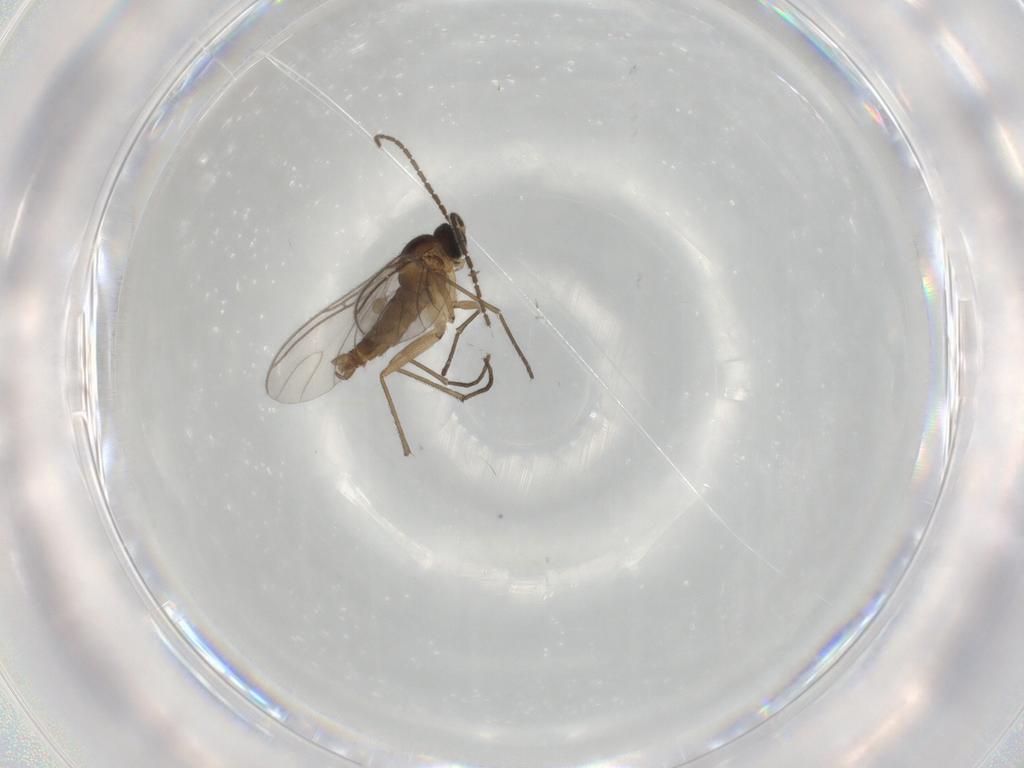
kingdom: Animalia
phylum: Arthropoda
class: Insecta
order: Diptera
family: Sciaridae
